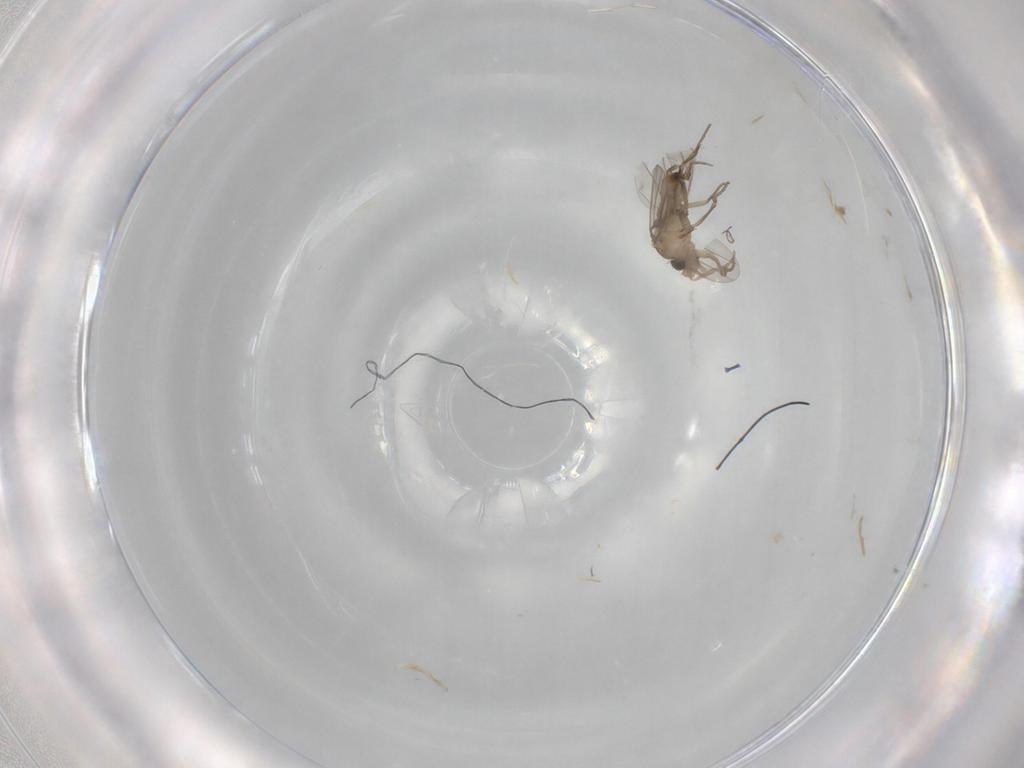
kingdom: Animalia
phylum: Arthropoda
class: Insecta
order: Diptera
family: Phoridae
